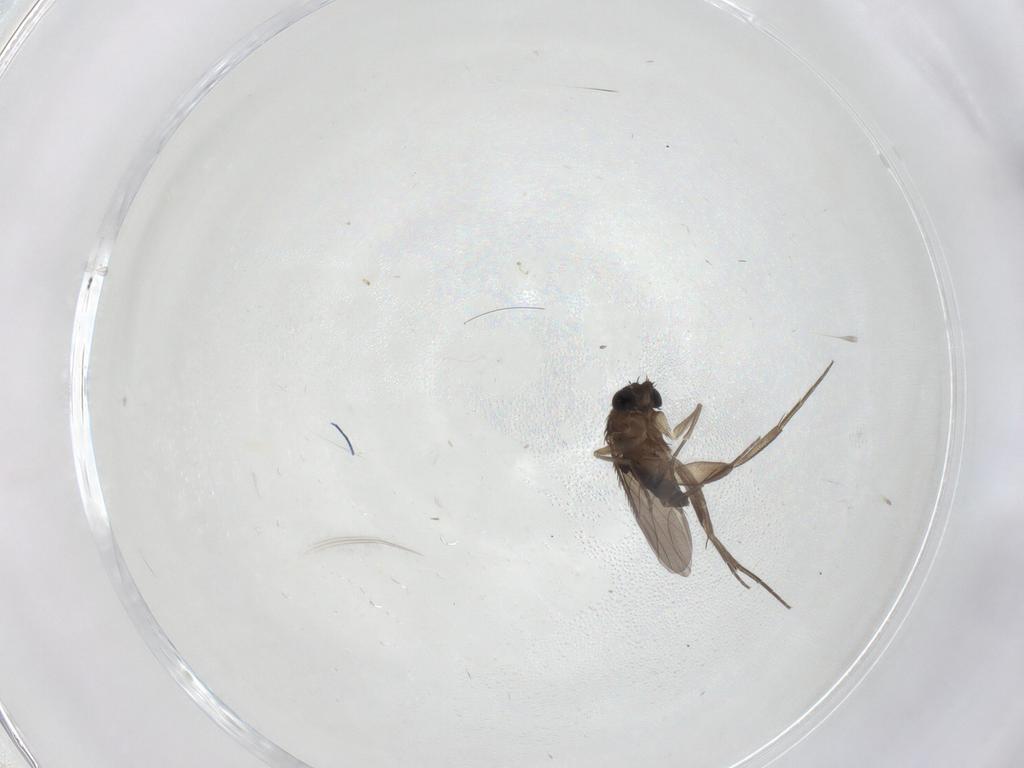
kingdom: Animalia
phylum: Arthropoda
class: Insecta
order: Diptera
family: Phoridae
